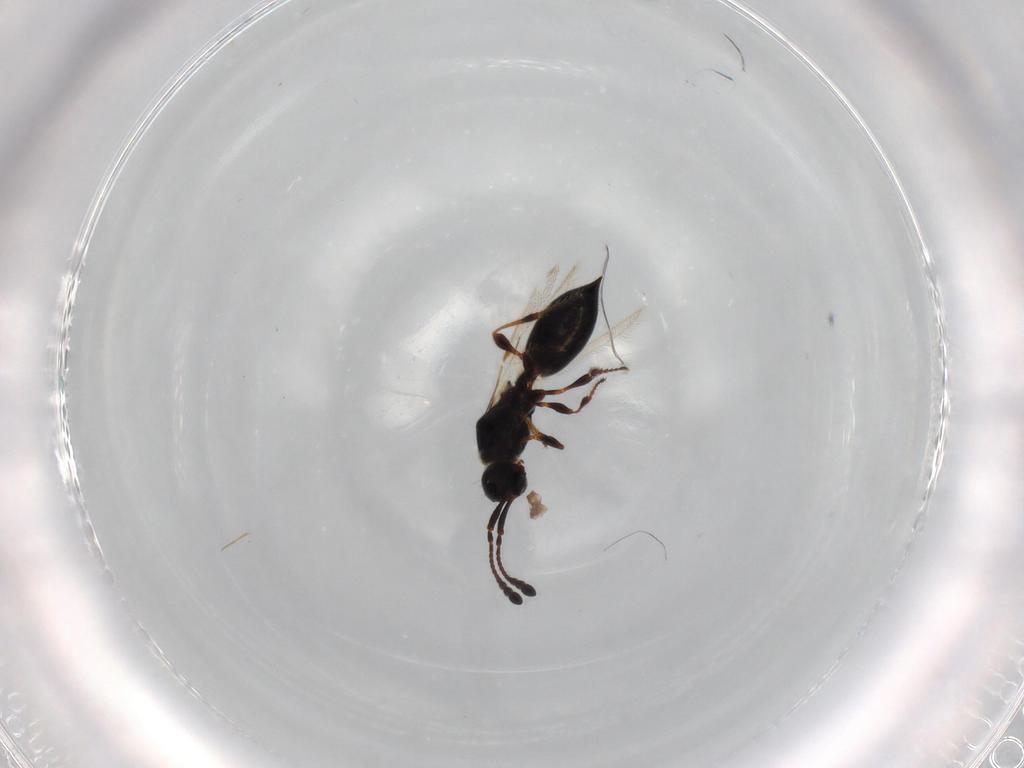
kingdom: Animalia
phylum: Arthropoda
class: Insecta
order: Hymenoptera
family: Diapriidae
